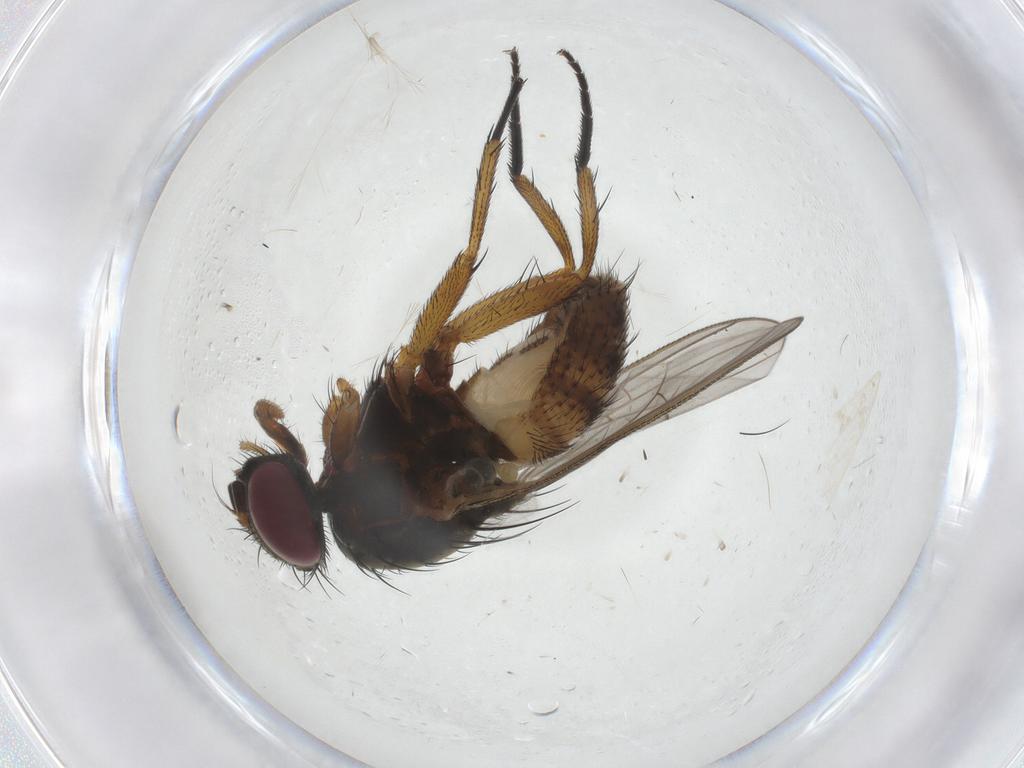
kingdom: Animalia
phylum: Arthropoda
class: Insecta
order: Diptera
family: Fannia
